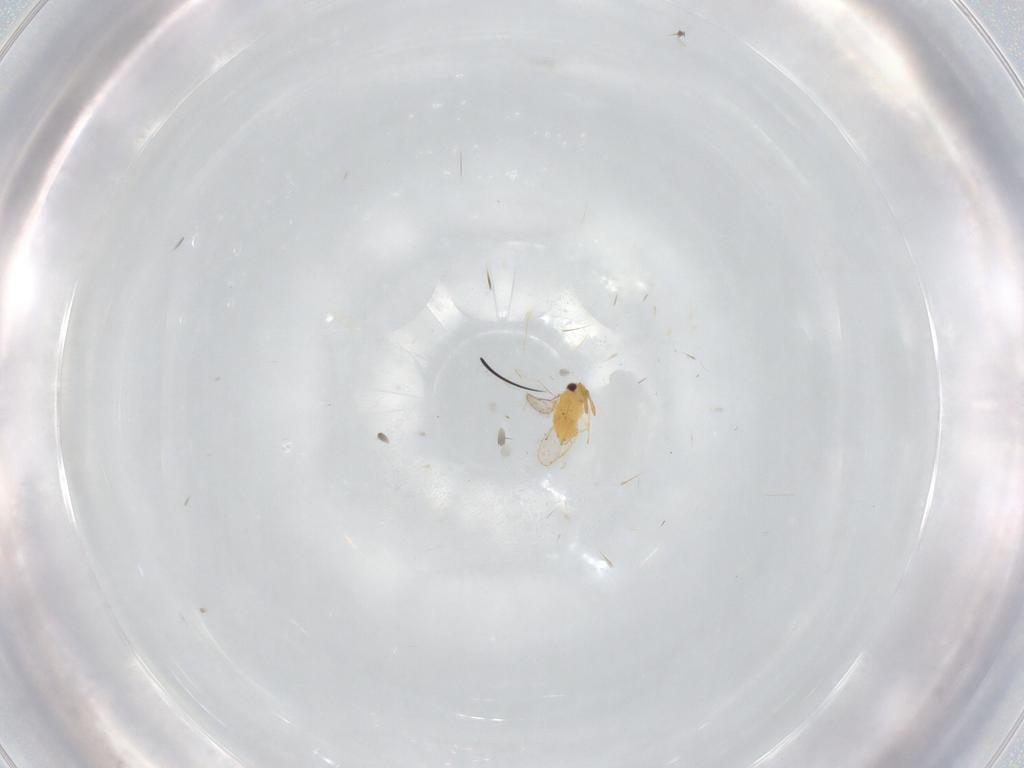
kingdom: Animalia
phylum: Arthropoda
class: Insecta
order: Hymenoptera
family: Aphelinidae
